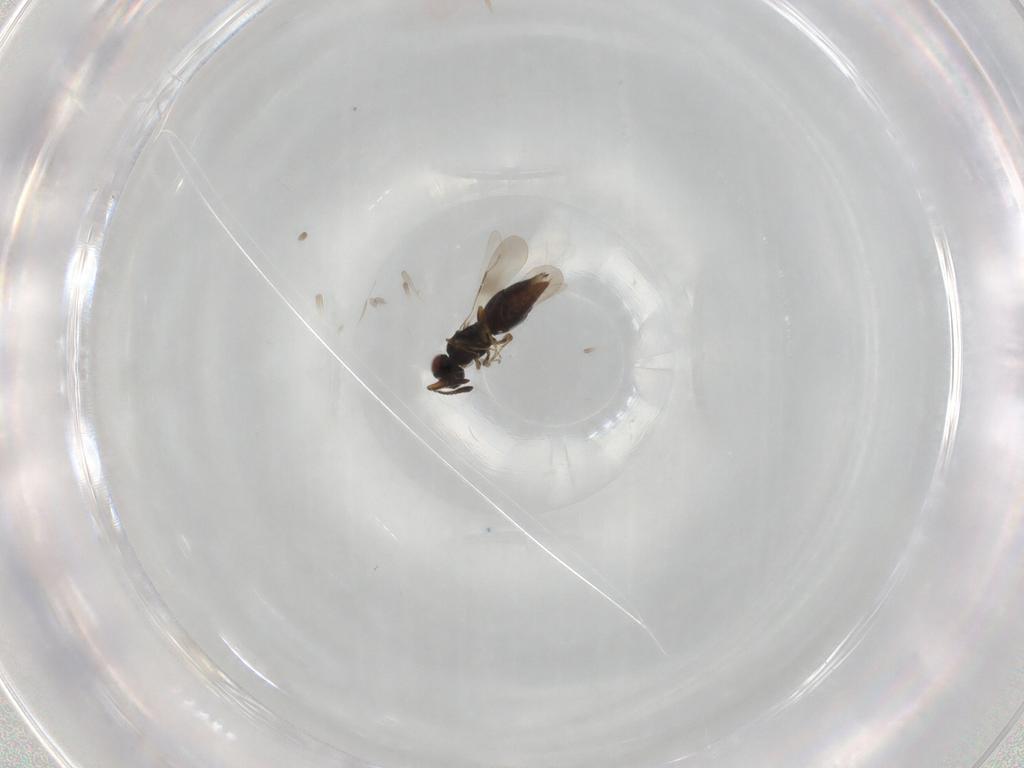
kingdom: Animalia
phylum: Arthropoda
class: Insecta
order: Hymenoptera
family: Ceraphronidae
